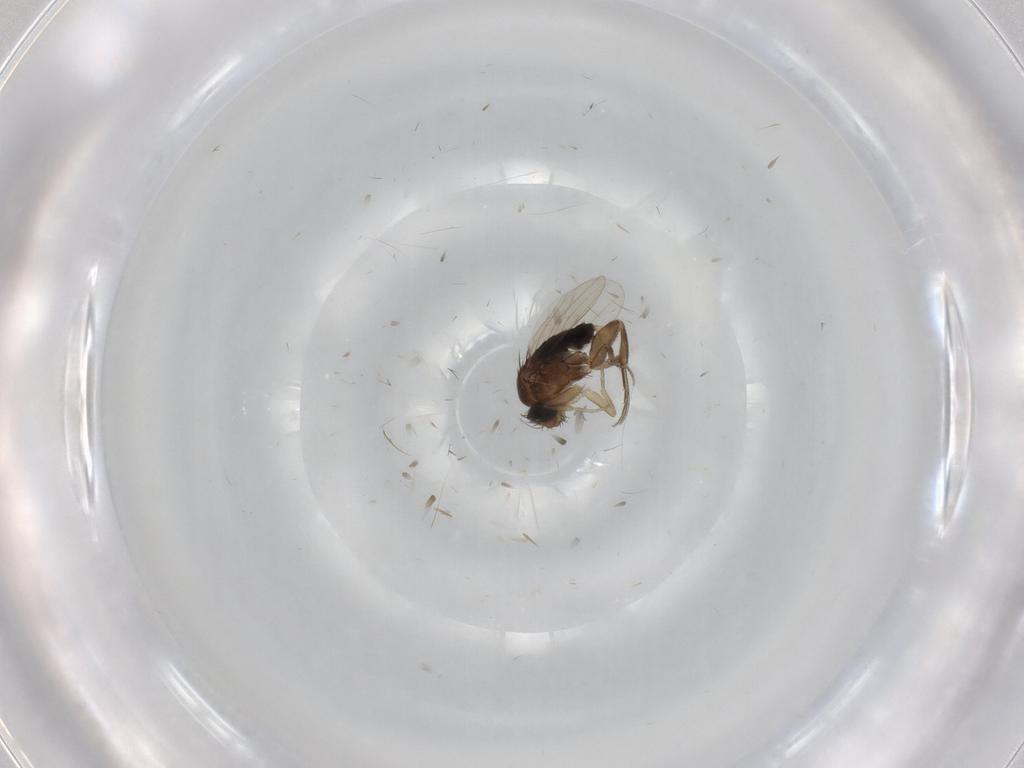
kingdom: Animalia
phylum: Arthropoda
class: Insecta
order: Diptera
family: Phoridae
